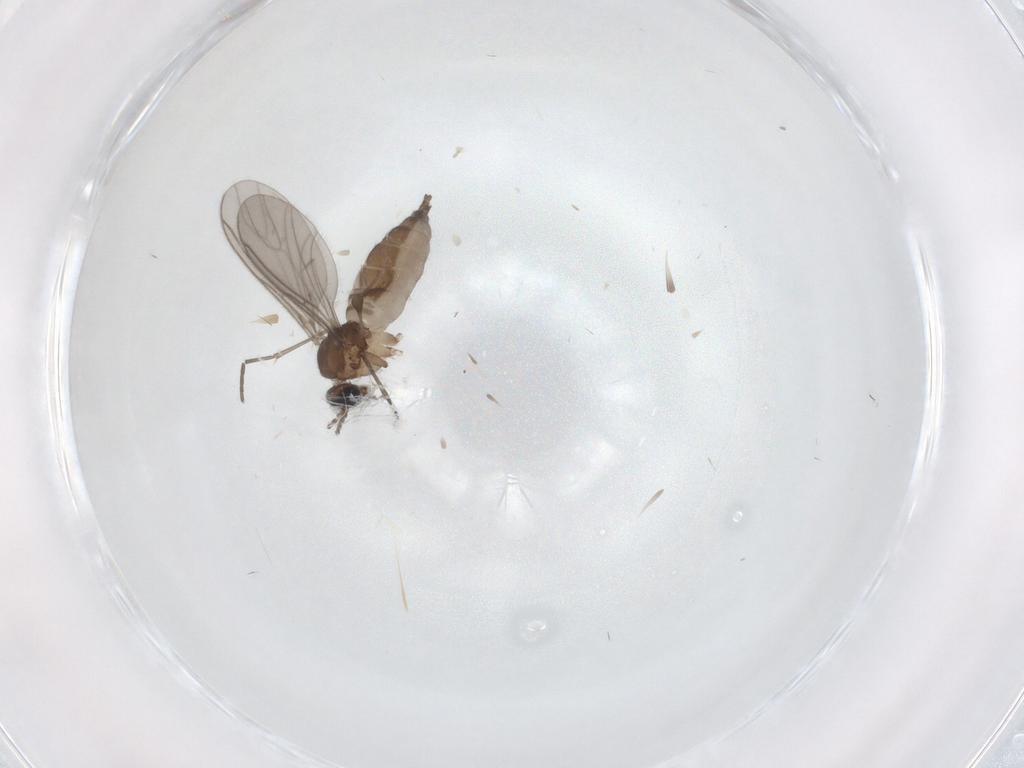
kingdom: Animalia
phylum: Arthropoda
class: Insecta
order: Diptera
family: Sciaridae
